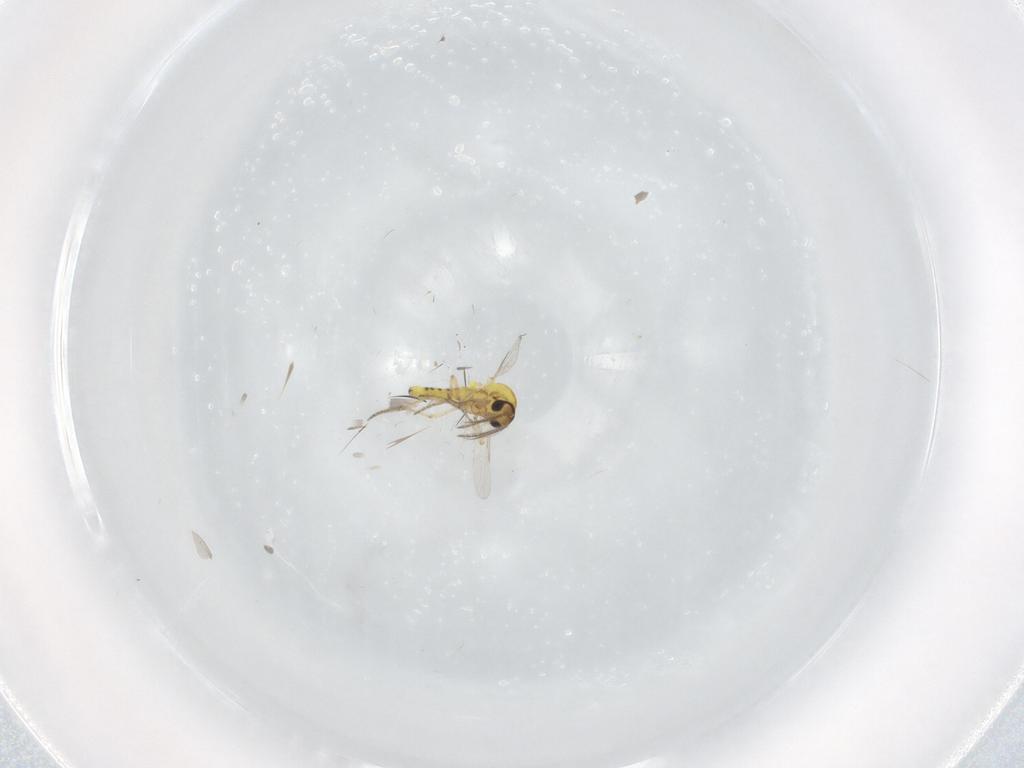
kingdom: Animalia
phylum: Arthropoda
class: Insecta
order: Diptera
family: Ceratopogonidae
